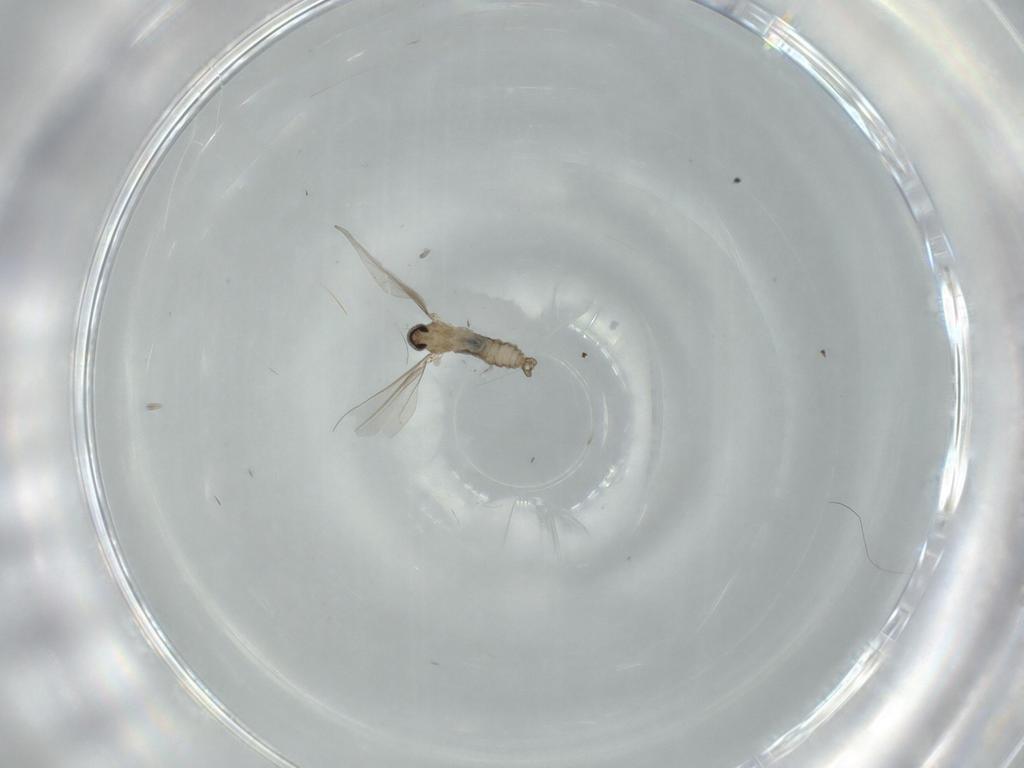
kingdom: Animalia
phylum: Arthropoda
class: Insecta
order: Diptera
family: Cecidomyiidae
